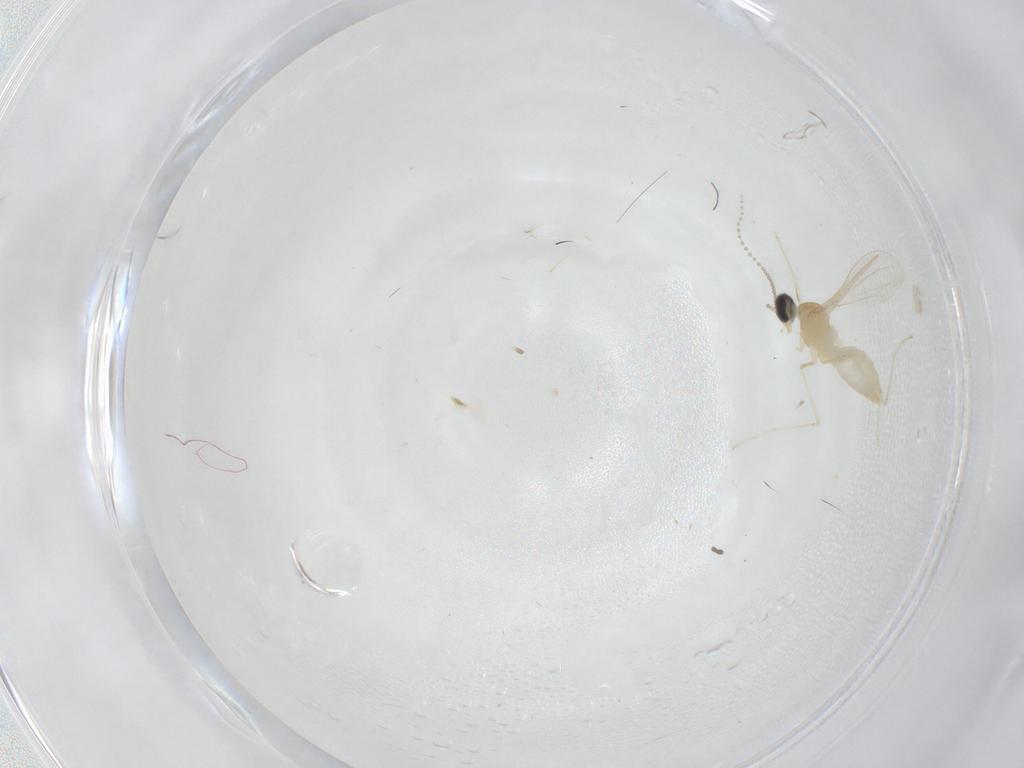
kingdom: Animalia
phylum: Arthropoda
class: Insecta
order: Diptera
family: Cecidomyiidae
